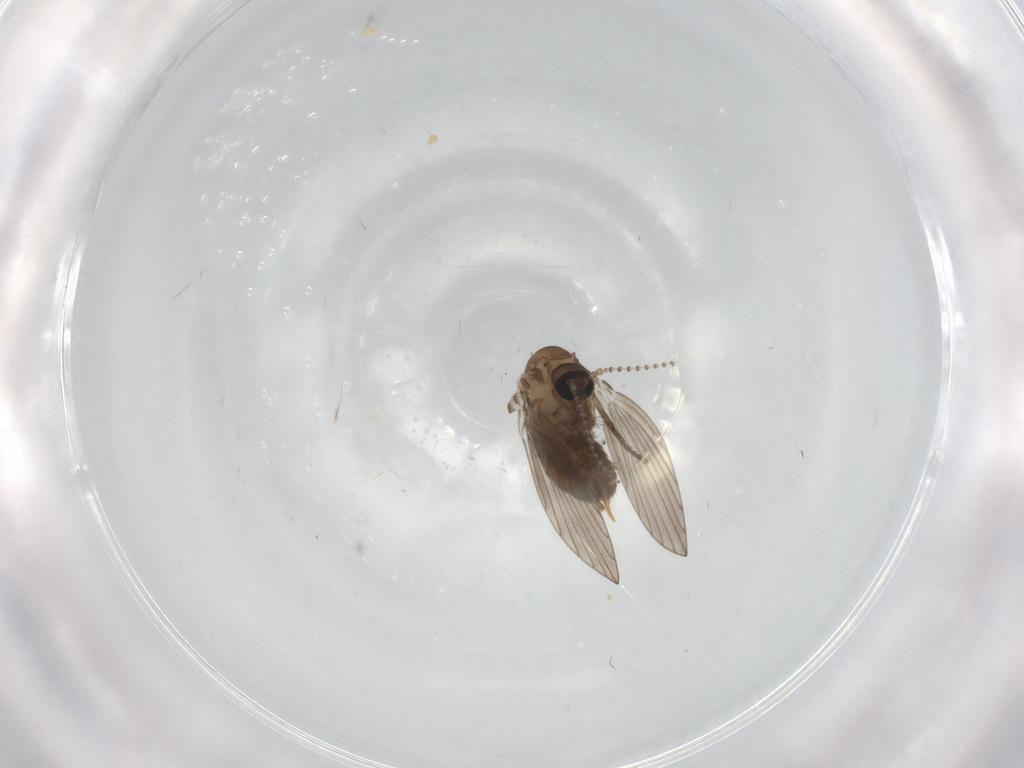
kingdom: Animalia
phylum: Arthropoda
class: Insecta
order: Diptera
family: Psychodidae
